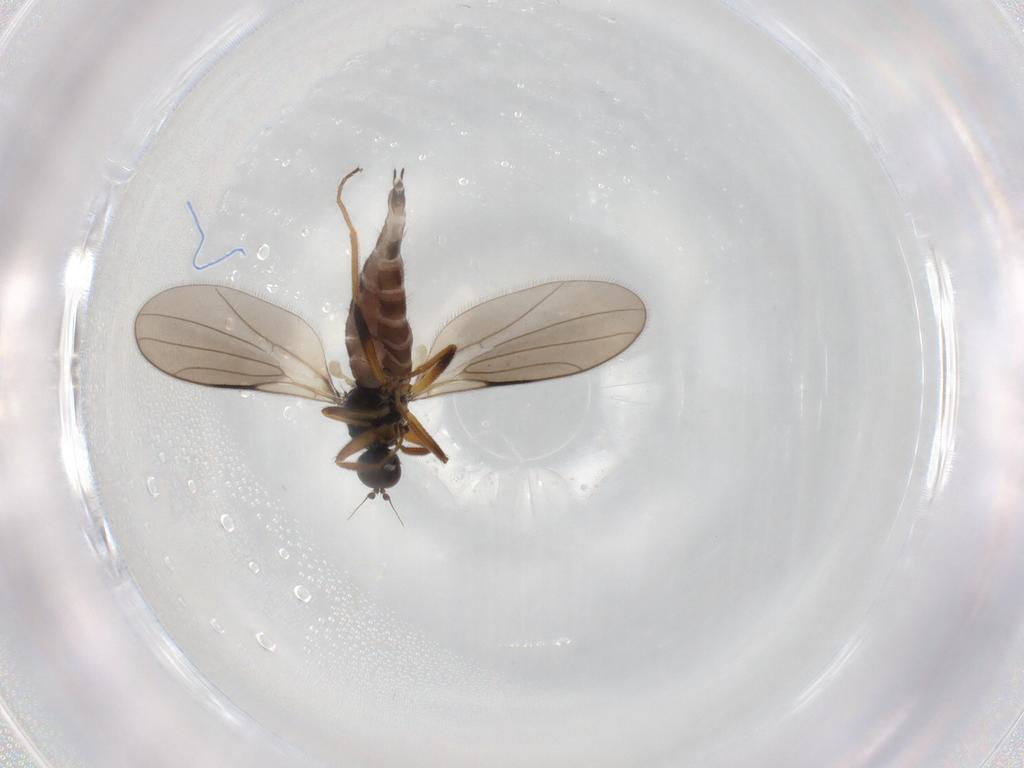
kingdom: Animalia
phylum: Arthropoda
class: Insecta
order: Diptera
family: Hybotidae
